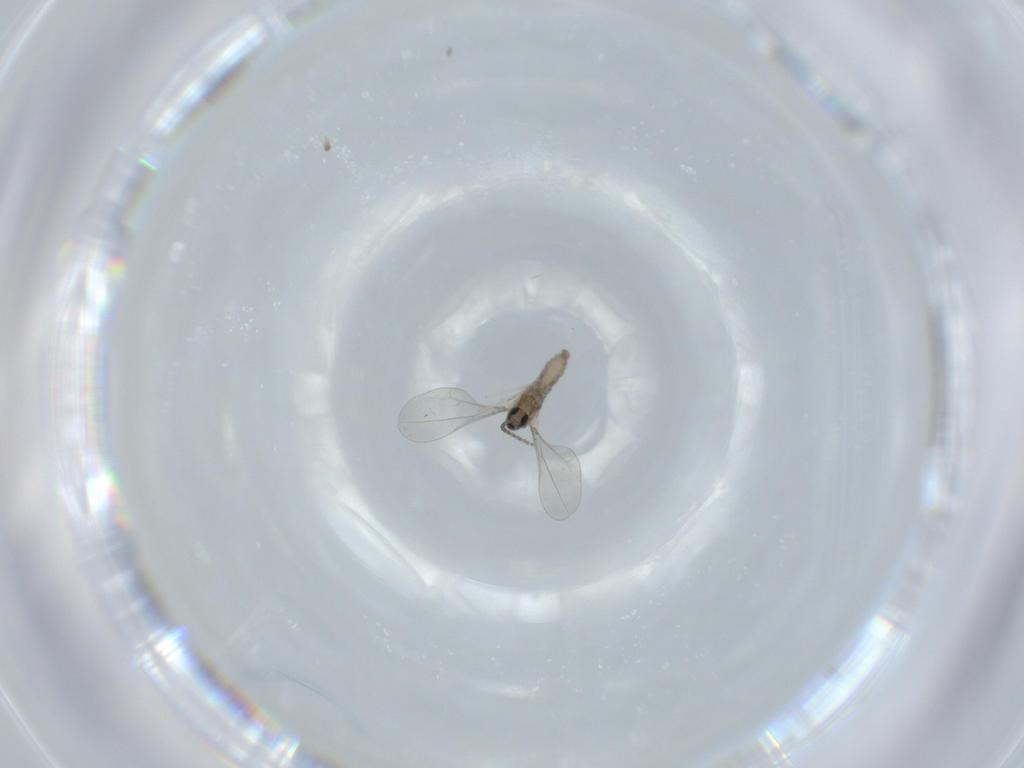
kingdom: Animalia
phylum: Arthropoda
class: Insecta
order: Diptera
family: Cecidomyiidae
